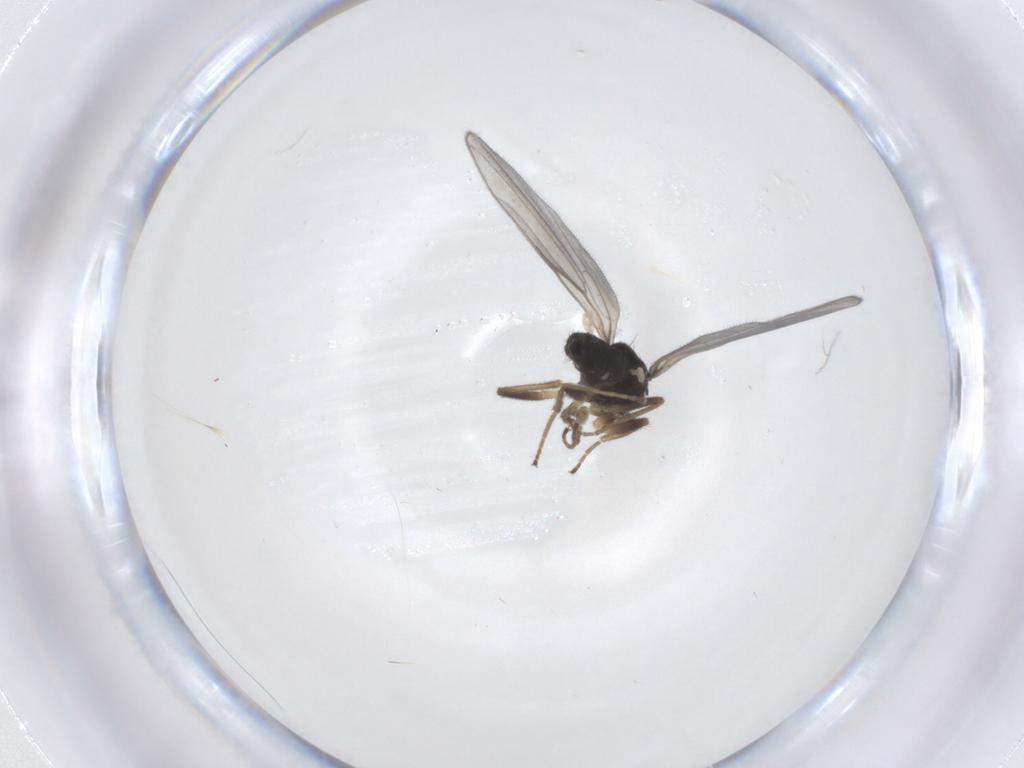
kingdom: Animalia
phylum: Arthropoda
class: Insecta
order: Diptera
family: Hybotidae
